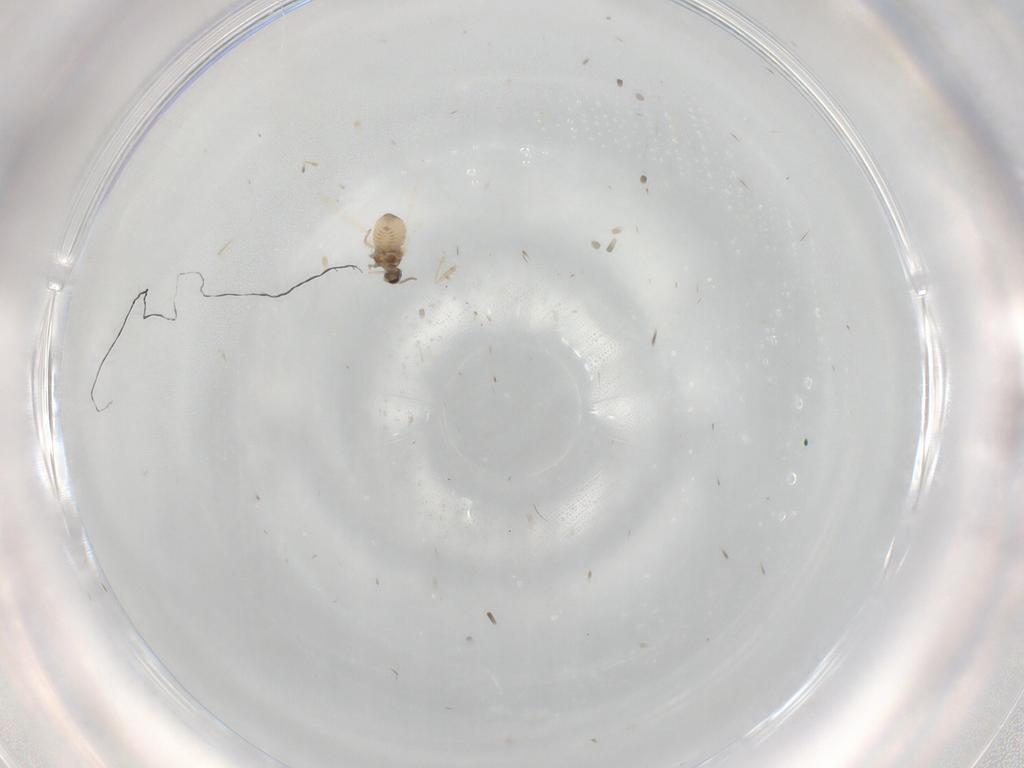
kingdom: Animalia
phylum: Arthropoda
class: Insecta
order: Diptera
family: Cecidomyiidae
